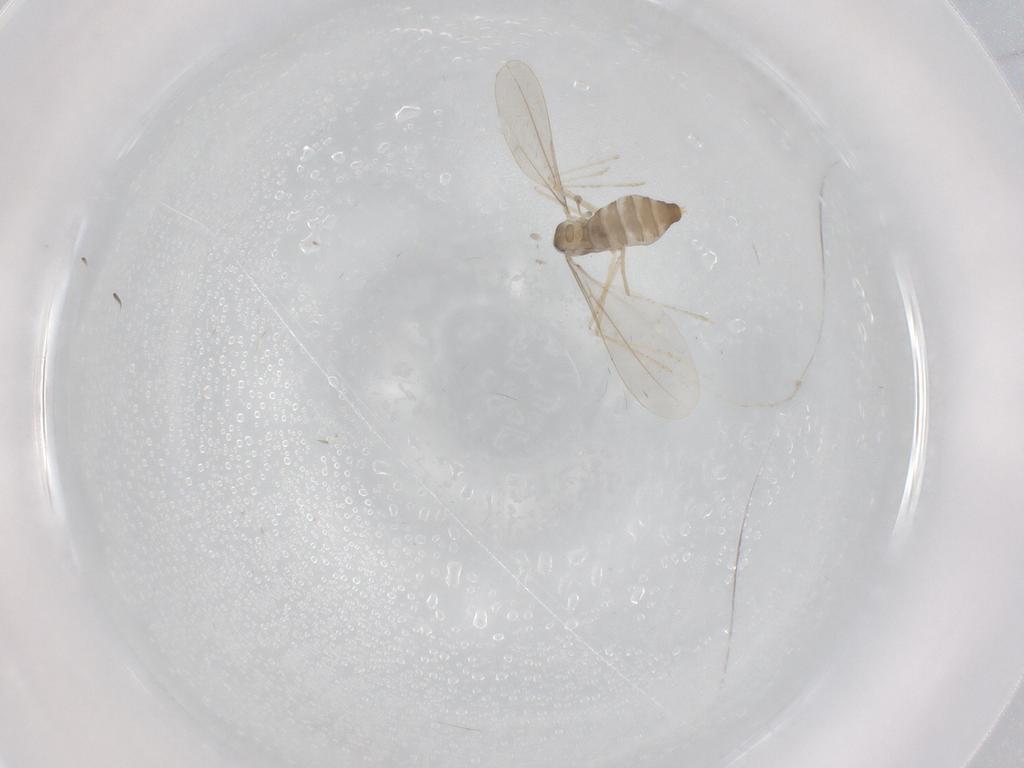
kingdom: Animalia
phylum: Arthropoda
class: Insecta
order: Diptera
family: Cecidomyiidae
